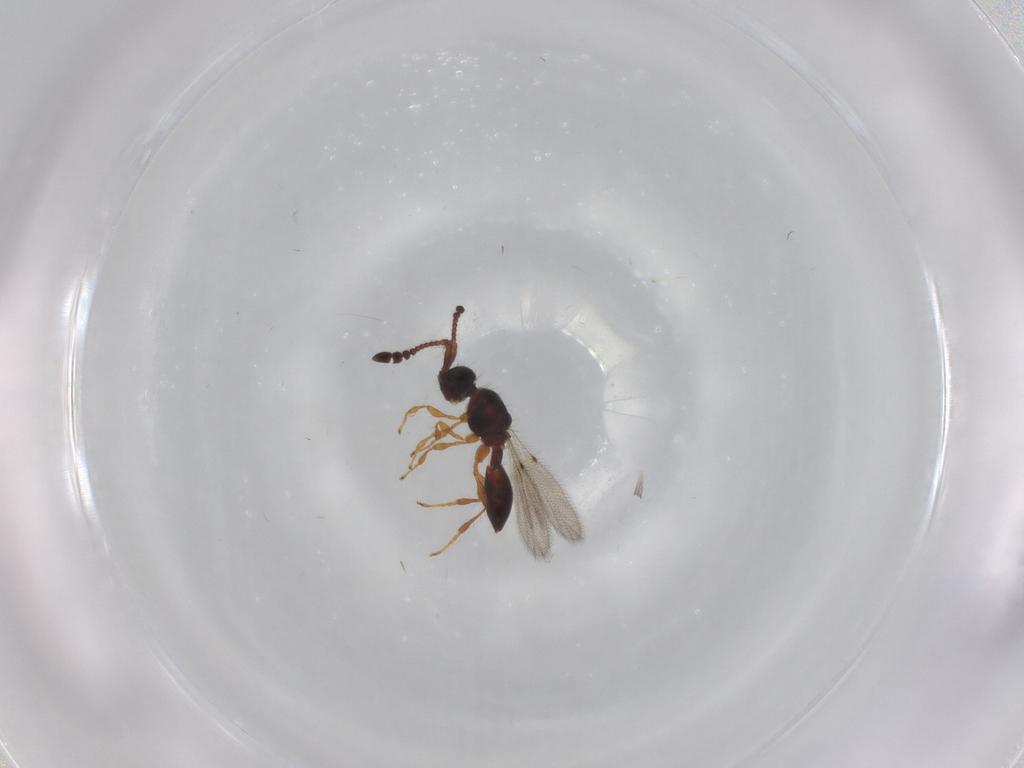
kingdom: Animalia
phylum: Arthropoda
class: Insecta
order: Hymenoptera
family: Diapriidae
